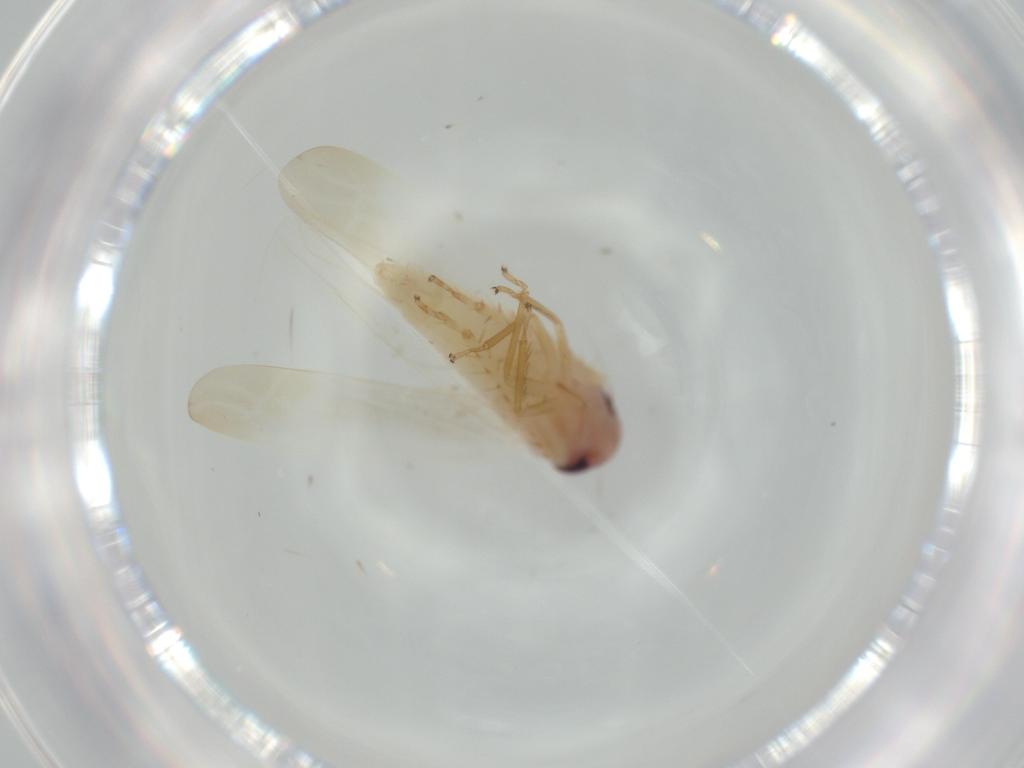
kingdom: Animalia
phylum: Arthropoda
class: Insecta
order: Hemiptera
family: Cicadellidae
